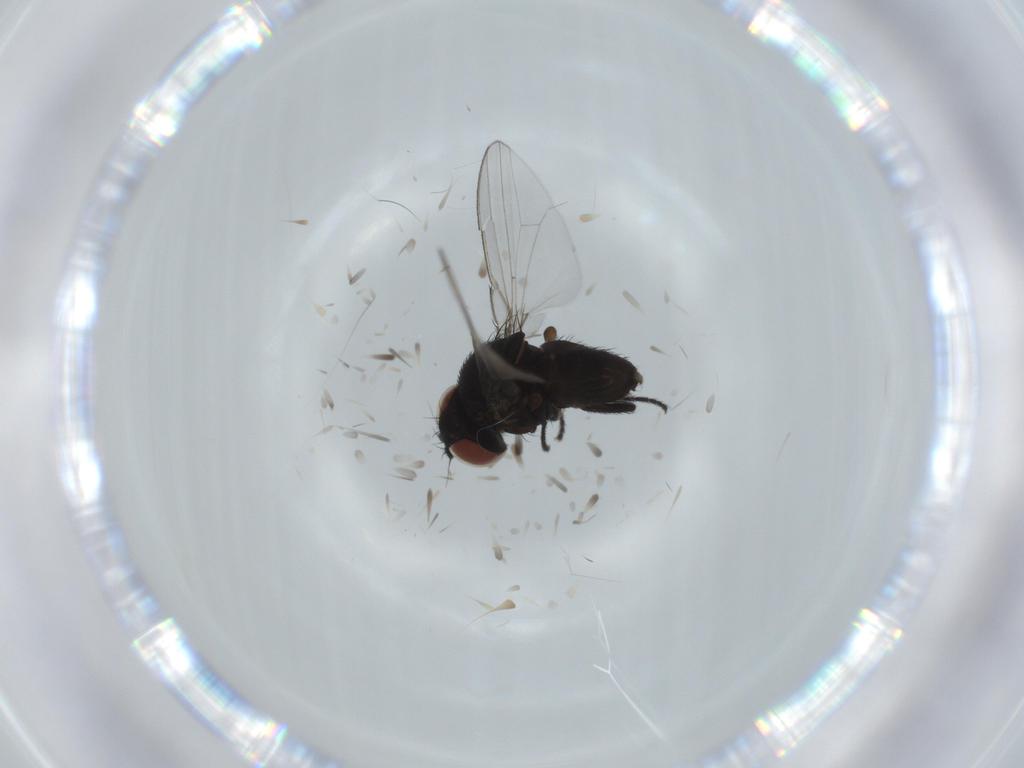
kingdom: Animalia
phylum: Arthropoda
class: Insecta
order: Diptera
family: Milichiidae
